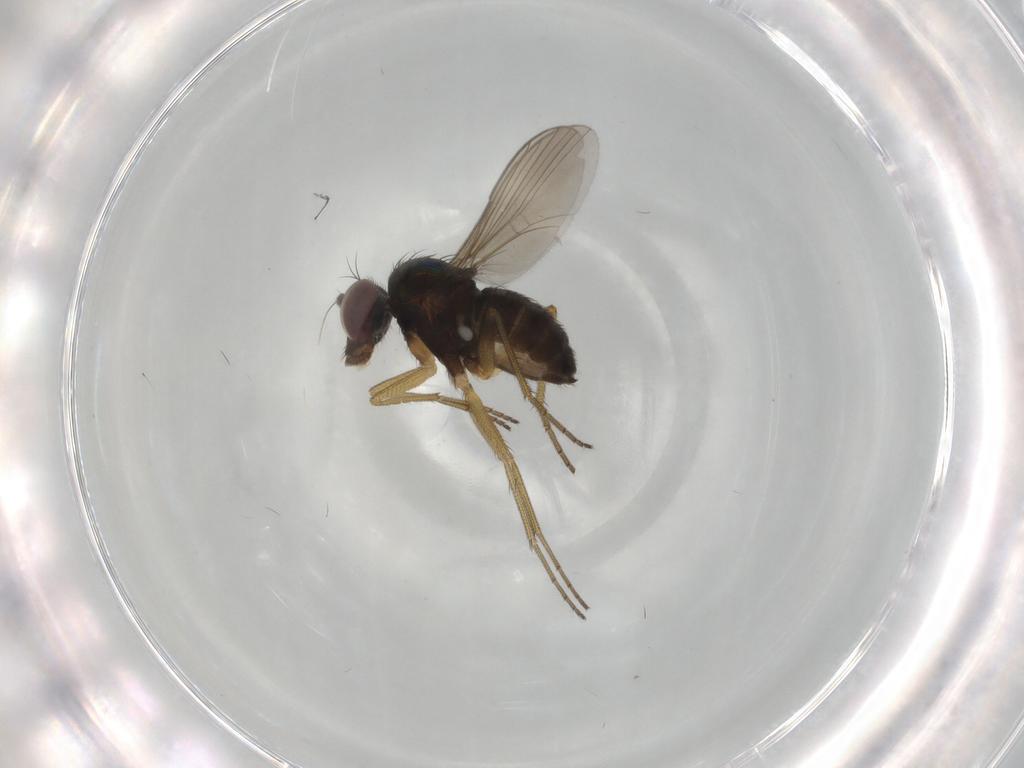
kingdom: Animalia
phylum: Arthropoda
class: Insecta
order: Diptera
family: Dolichopodidae
